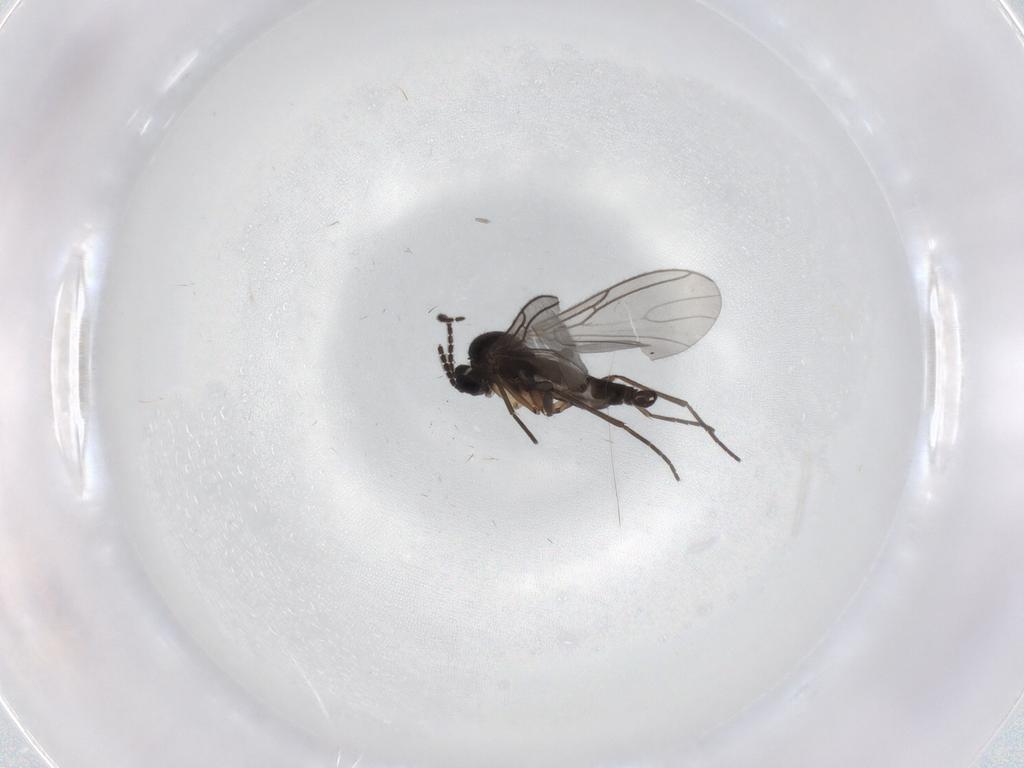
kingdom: Animalia
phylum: Arthropoda
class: Insecta
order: Diptera
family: Sciaridae
